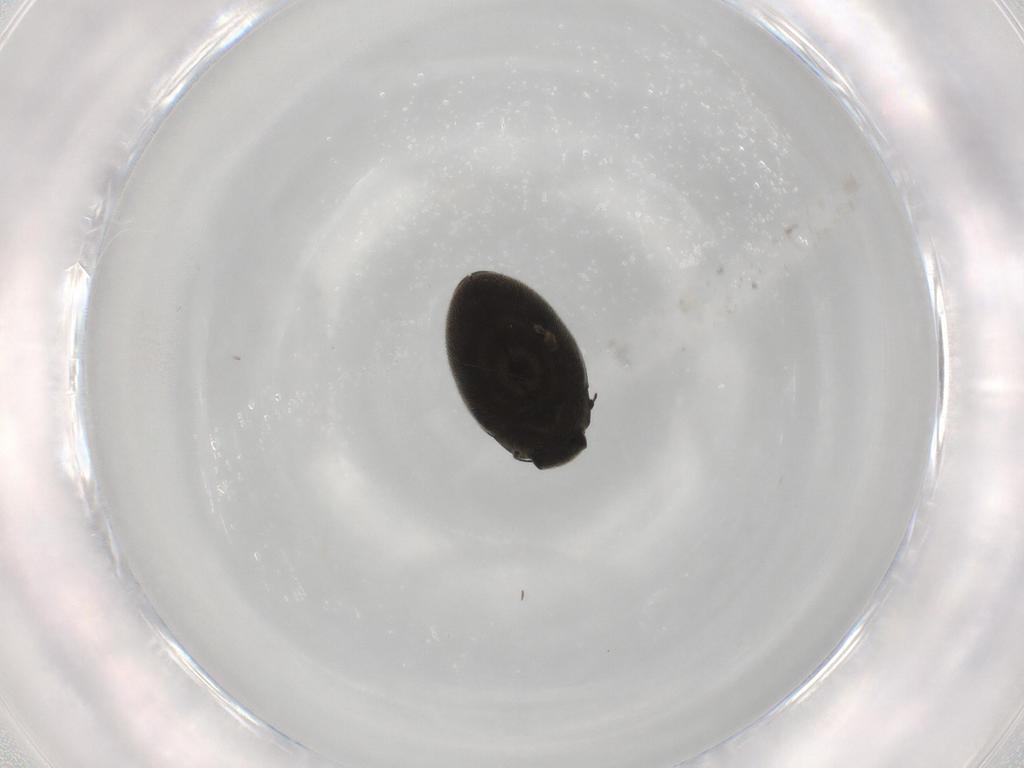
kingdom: Animalia
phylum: Arthropoda
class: Insecta
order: Coleoptera
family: Limnichidae
